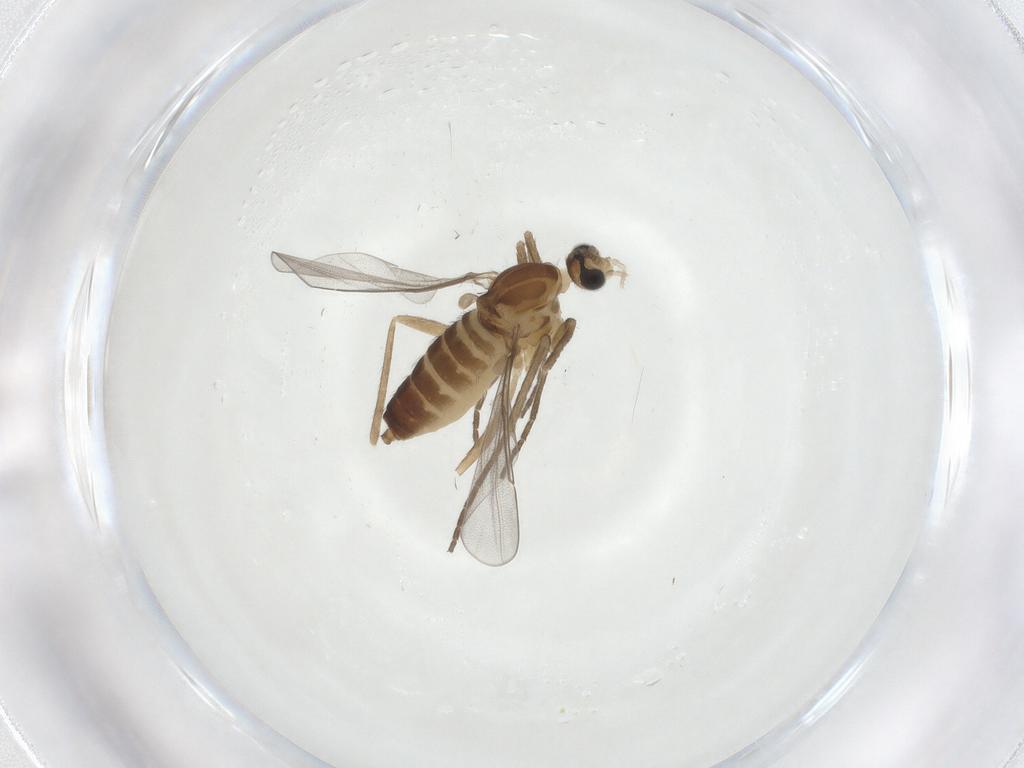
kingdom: Animalia
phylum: Arthropoda
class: Insecta
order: Diptera
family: Cecidomyiidae
